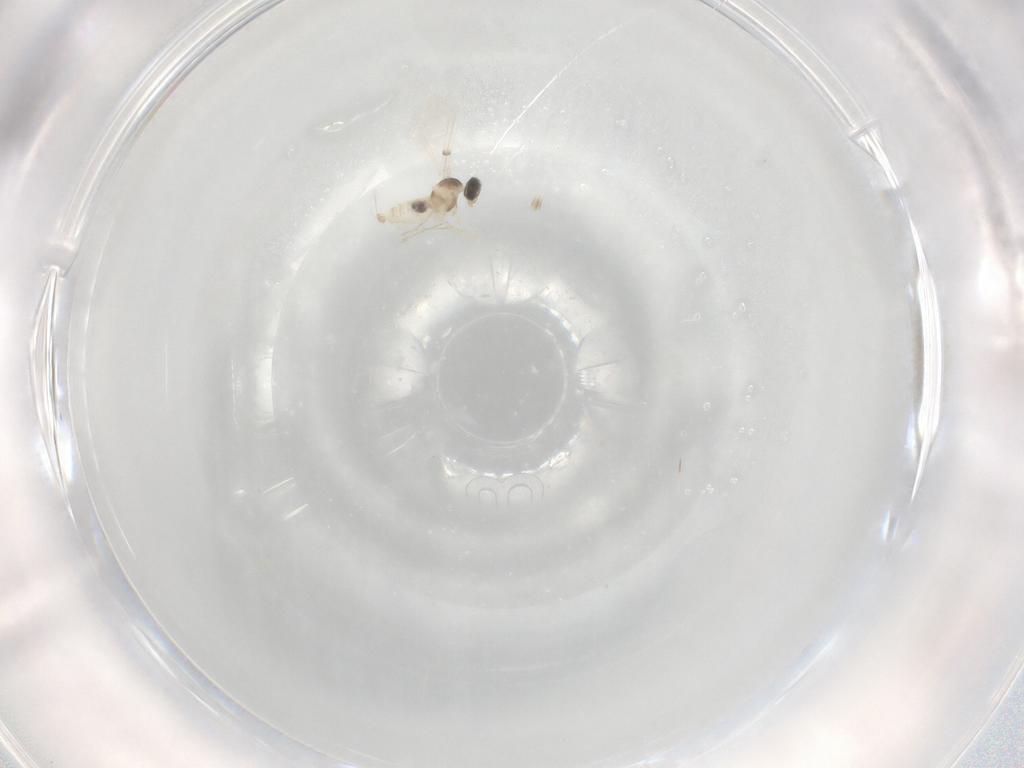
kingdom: Animalia
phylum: Arthropoda
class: Insecta
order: Diptera
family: Cecidomyiidae
